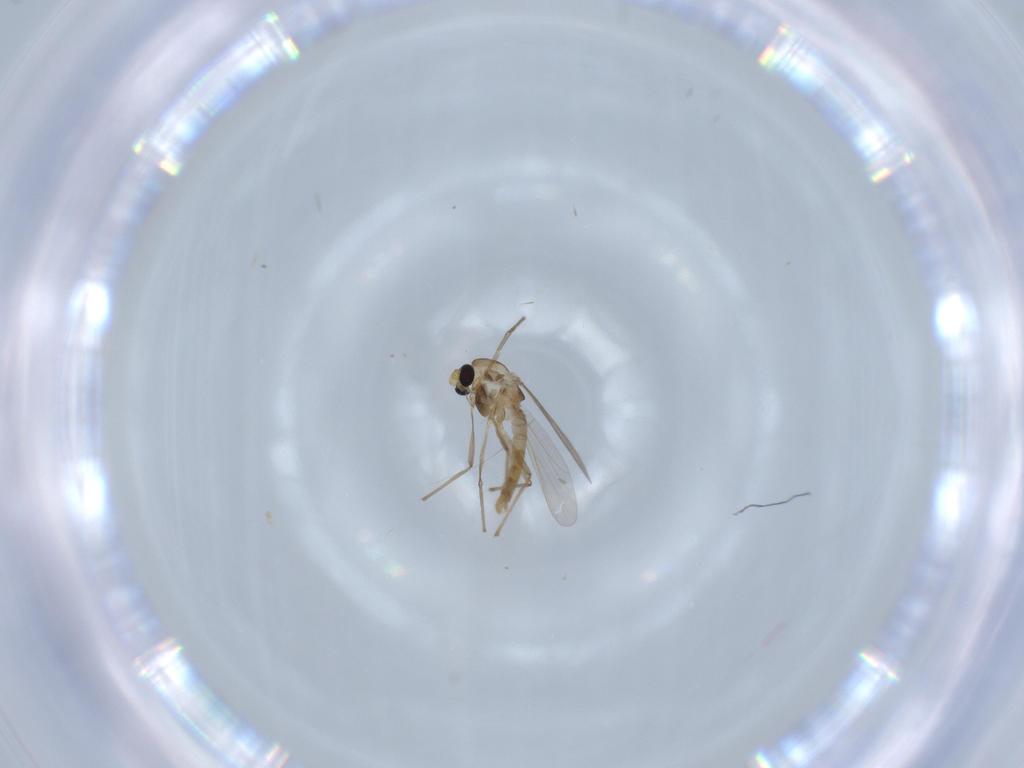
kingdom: Animalia
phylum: Arthropoda
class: Insecta
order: Diptera
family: Chironomidae
